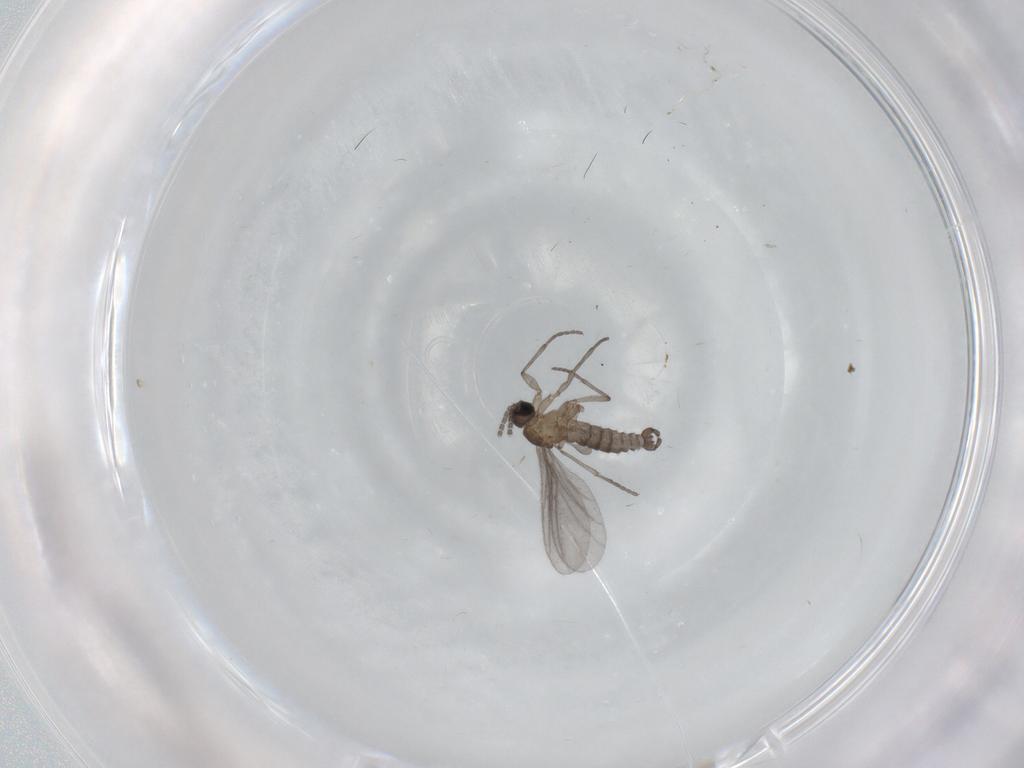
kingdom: Animalia
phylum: Arthropoda
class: Insecta
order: Diptera
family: Psychodidae
